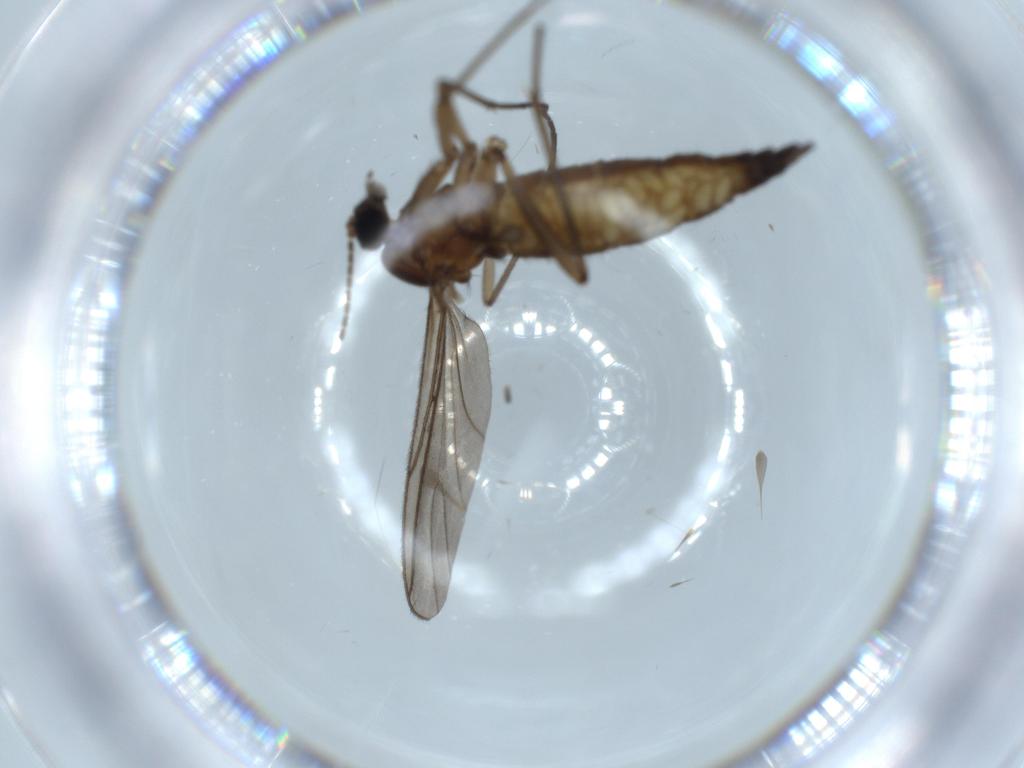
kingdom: Animalia
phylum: Arthropoda
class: Insecta
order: Diptera
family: Sciaridae
